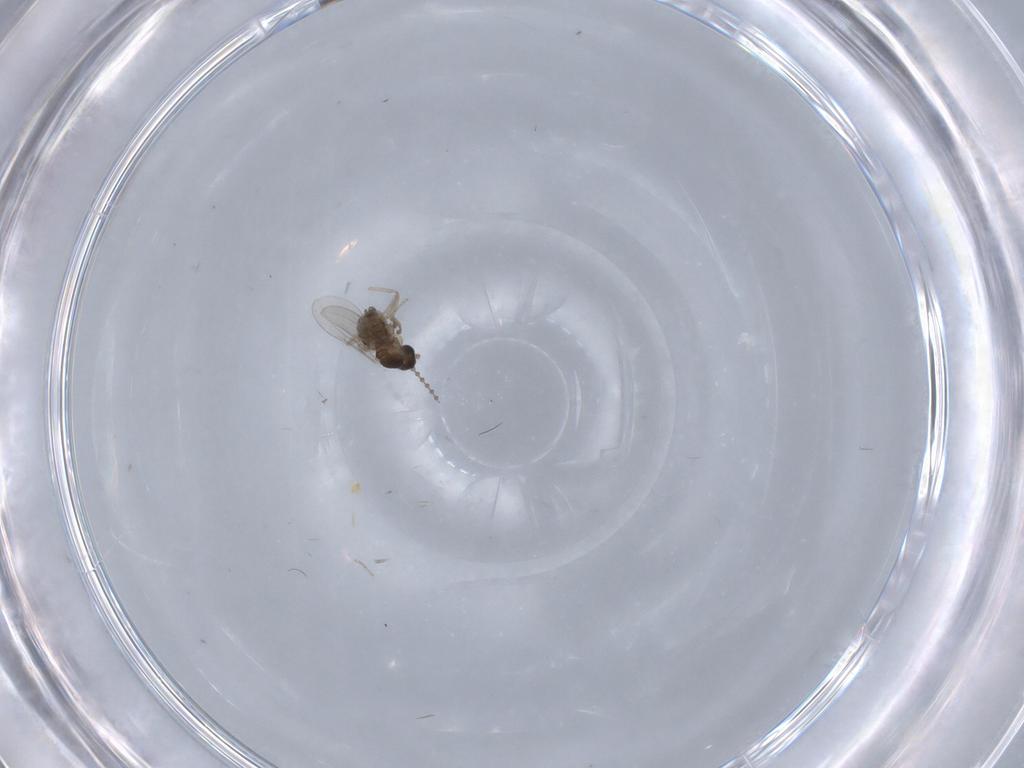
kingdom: Animalia
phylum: Arthropoda
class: Insecta
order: Diptera
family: Cecidomyiidae
